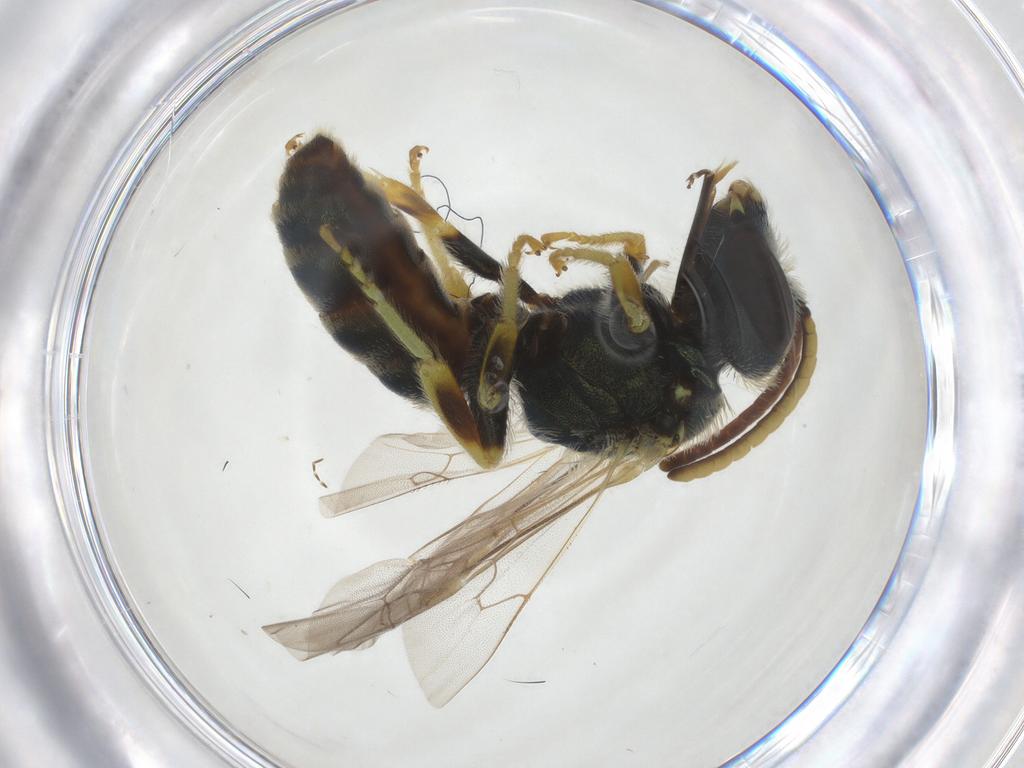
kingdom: Animalia
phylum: Arthropoda
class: Insecta
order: Hymenoptera
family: Halictidae
